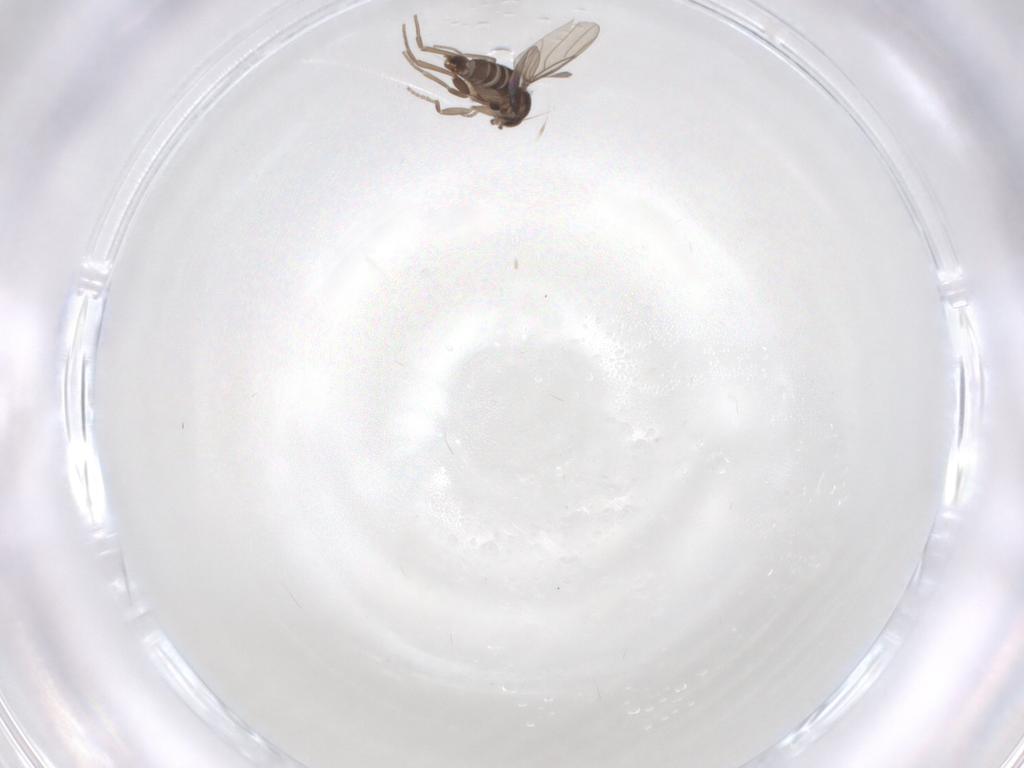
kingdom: Animalia
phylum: Arthropoda
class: Insecta
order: Diptera
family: Phoridae
